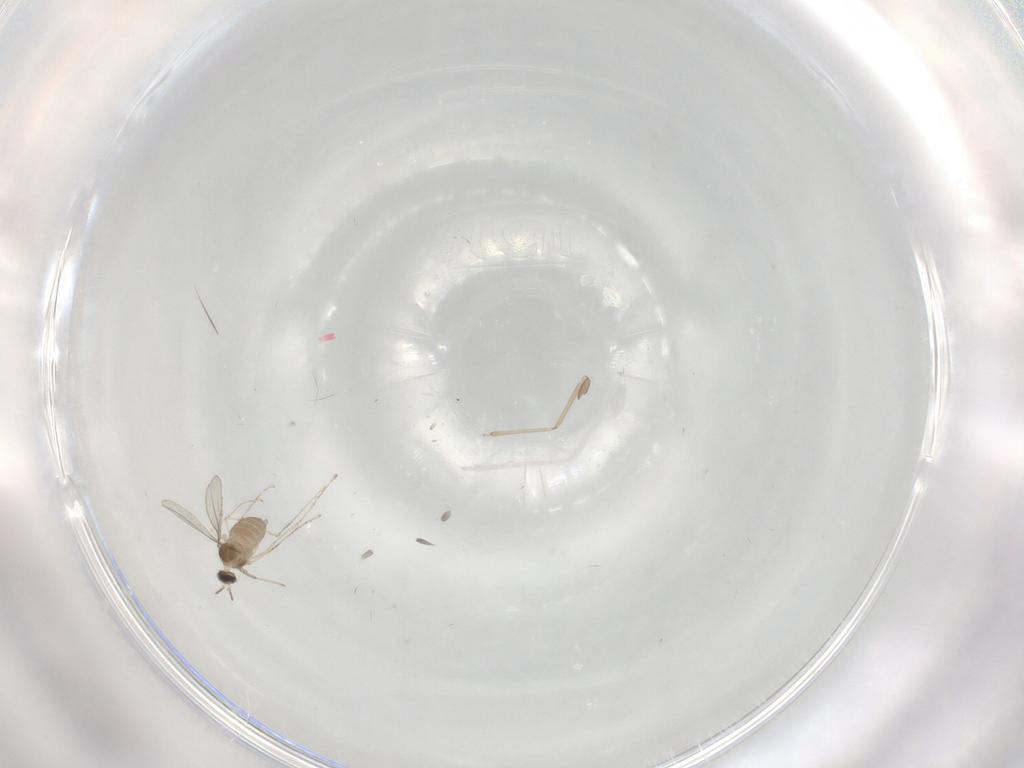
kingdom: Animalia
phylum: Arthropoda
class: Insecta
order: Diptera
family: Cecidomyiidae
